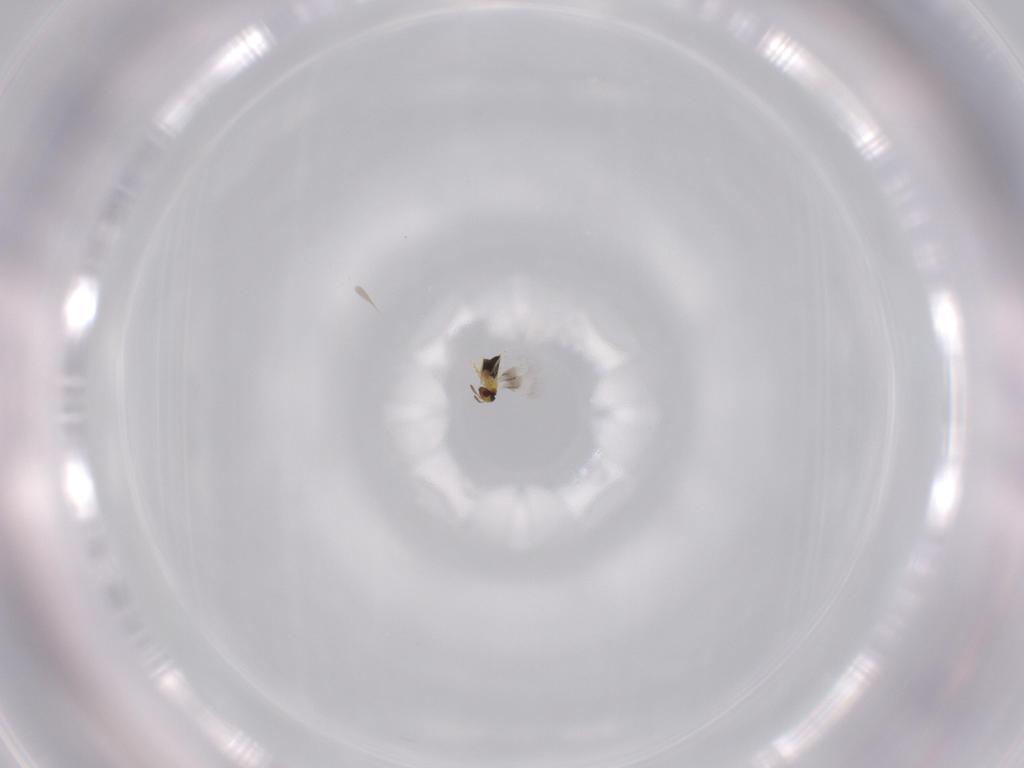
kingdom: Animalia
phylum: Arthropoda
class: Insecta
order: Hymenoptera
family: Signiphoridae
